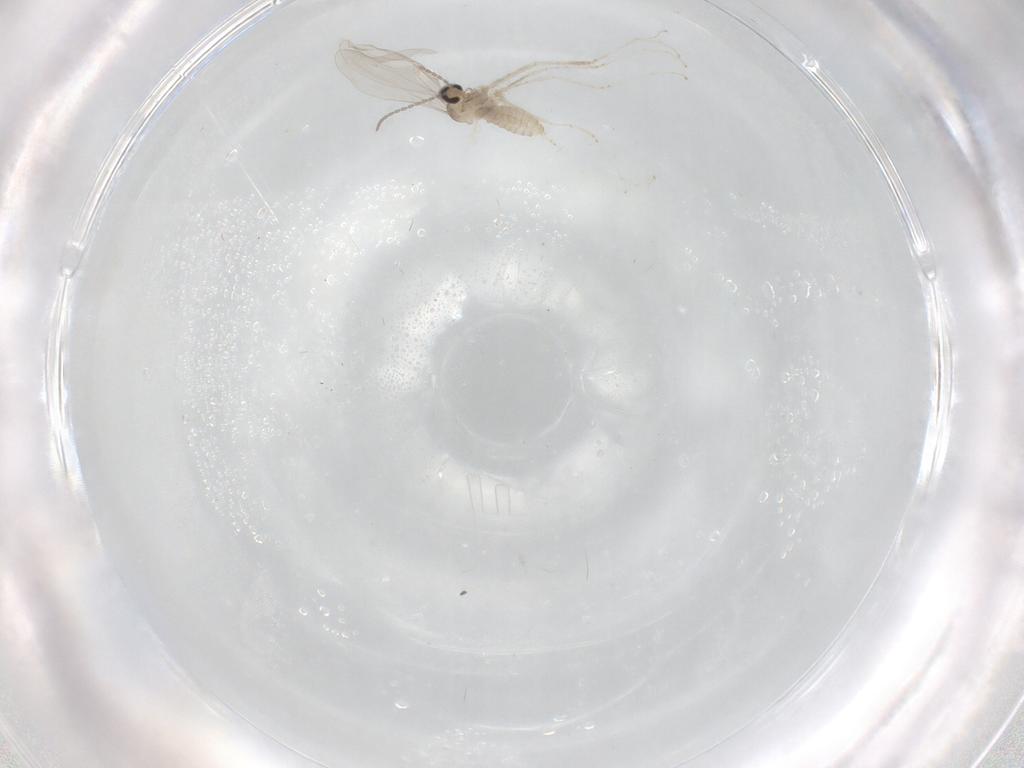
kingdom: Animalia
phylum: Arthropoda
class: Insecta
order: Diptera
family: Cecidomyiidae
